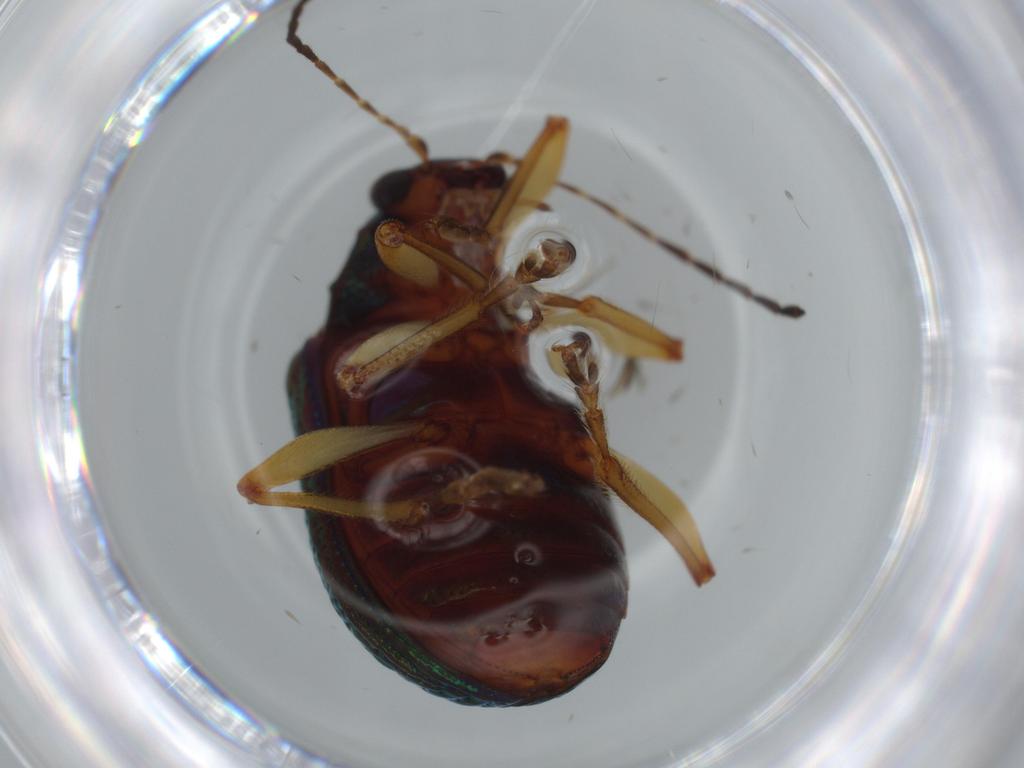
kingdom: Animalia
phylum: Arthropoda
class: Insecta
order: Coleoptera
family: Chrysomelidae
